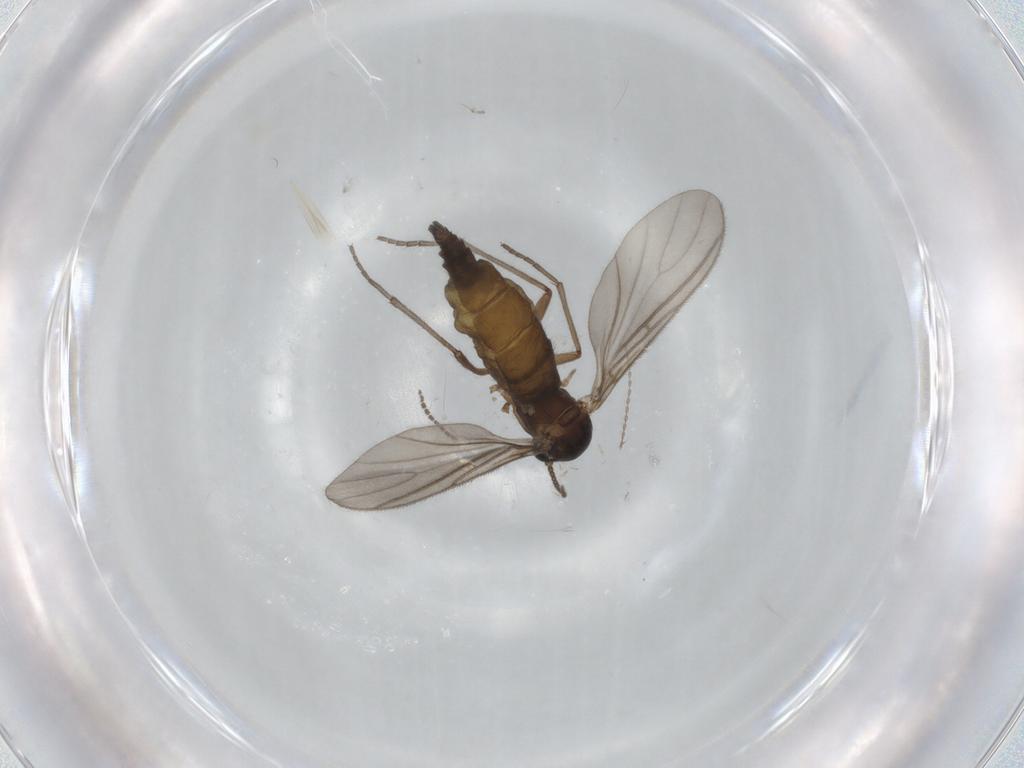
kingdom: Animalia
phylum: Arthropoda
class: Insecta
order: Diptera
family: Sciaridae
